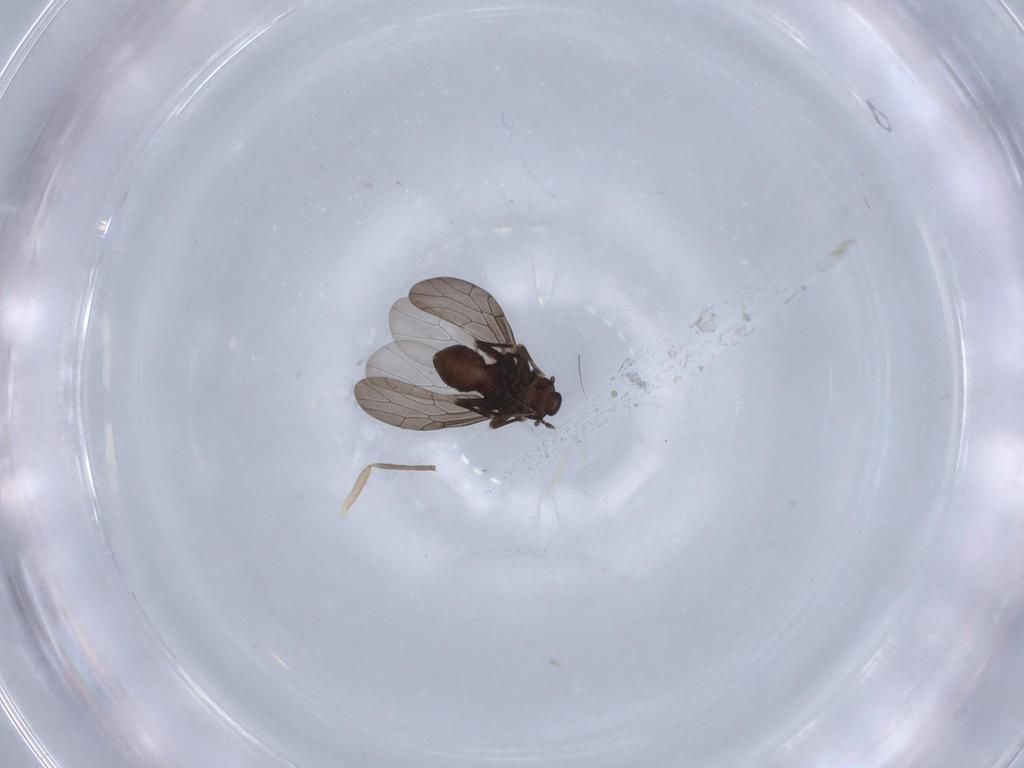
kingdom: Animalia
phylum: Arthropoda
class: Insecta
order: Psocodea
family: Lepidopsocidae
